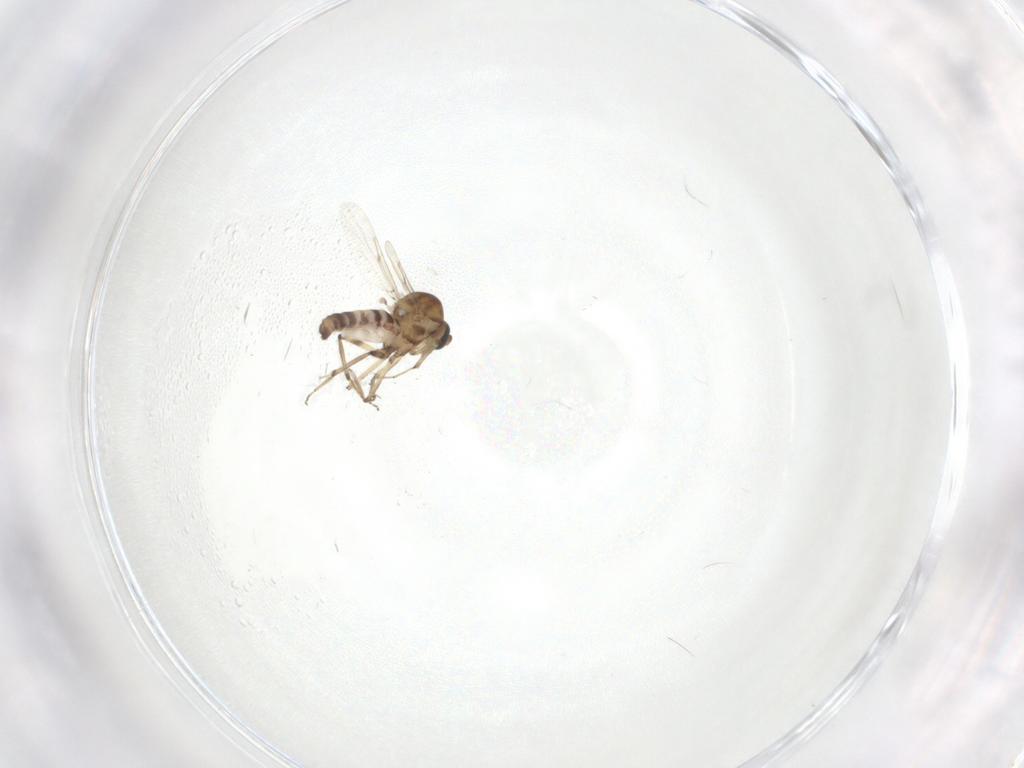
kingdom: Animalia
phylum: Arthropoda
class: Insecta
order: Diptera
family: Ceratopogonidae
